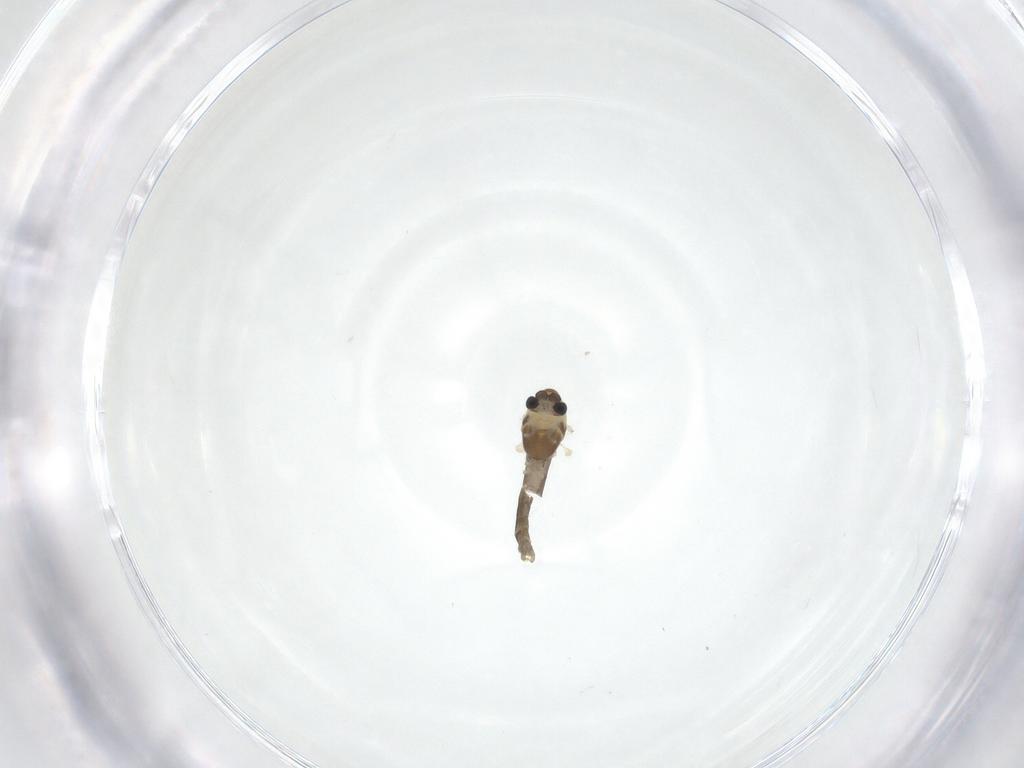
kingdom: Animalia
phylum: Arthropoda
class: Insecta
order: Diptera
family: Chironomidae
